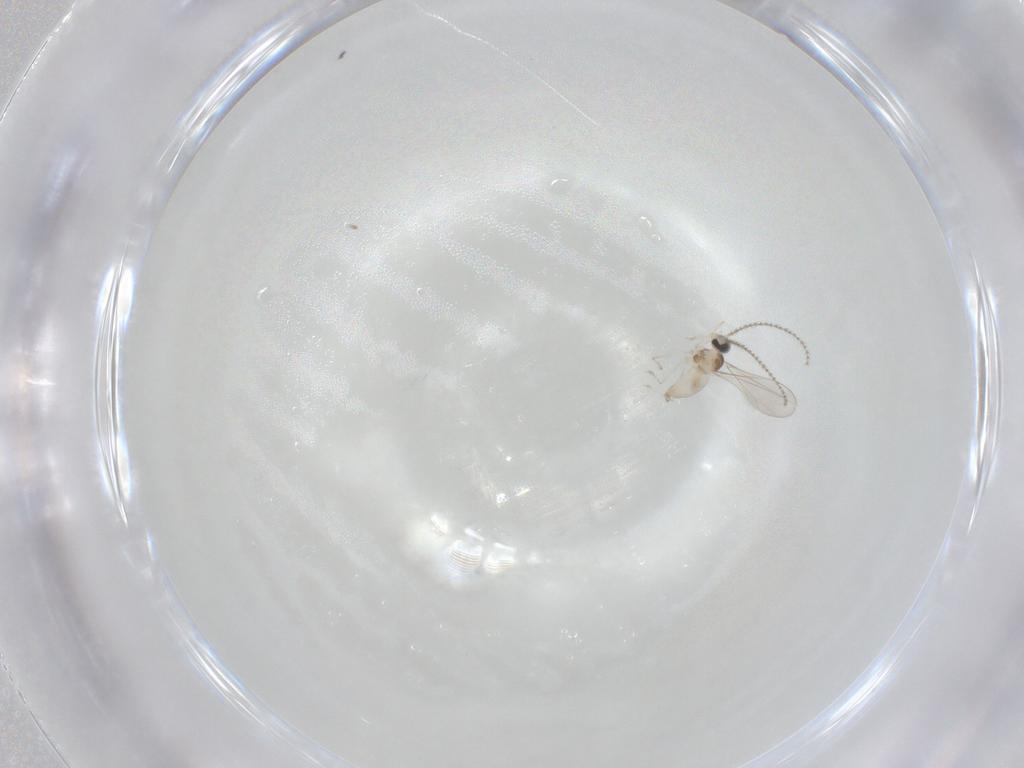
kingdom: Animalia
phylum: Arthropoda
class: Insecta
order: Diptera
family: Cecidomyiidae
